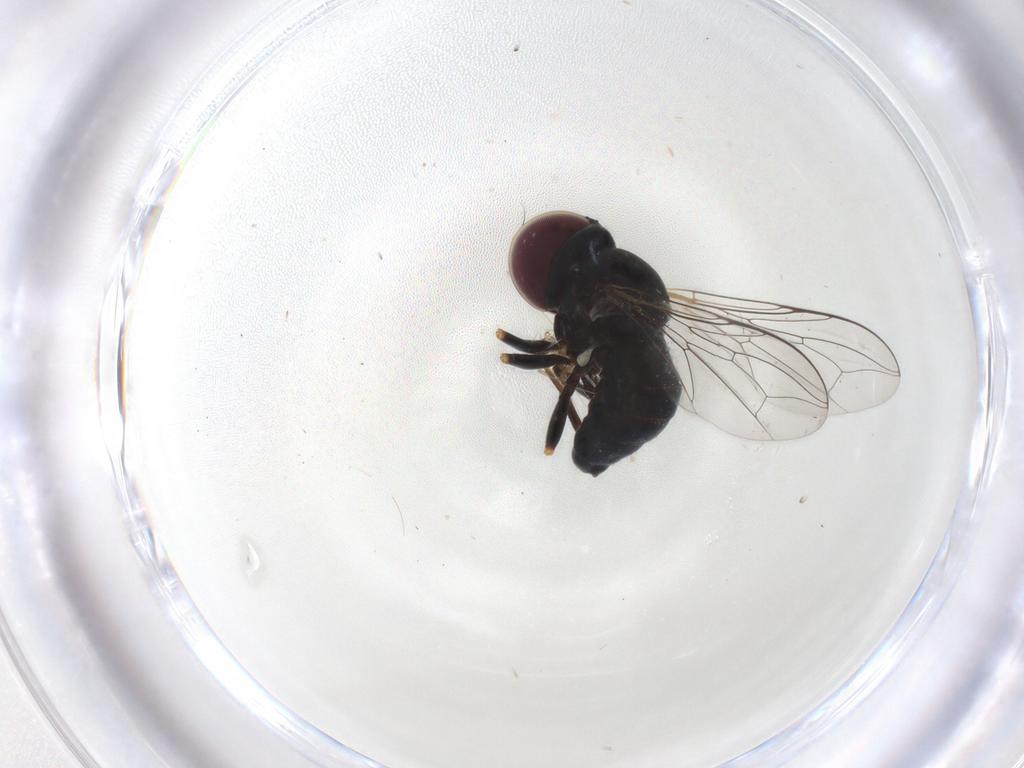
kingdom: Animalia
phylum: Arthropoda
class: Insecta
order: Diptera
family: Pipunculidae
